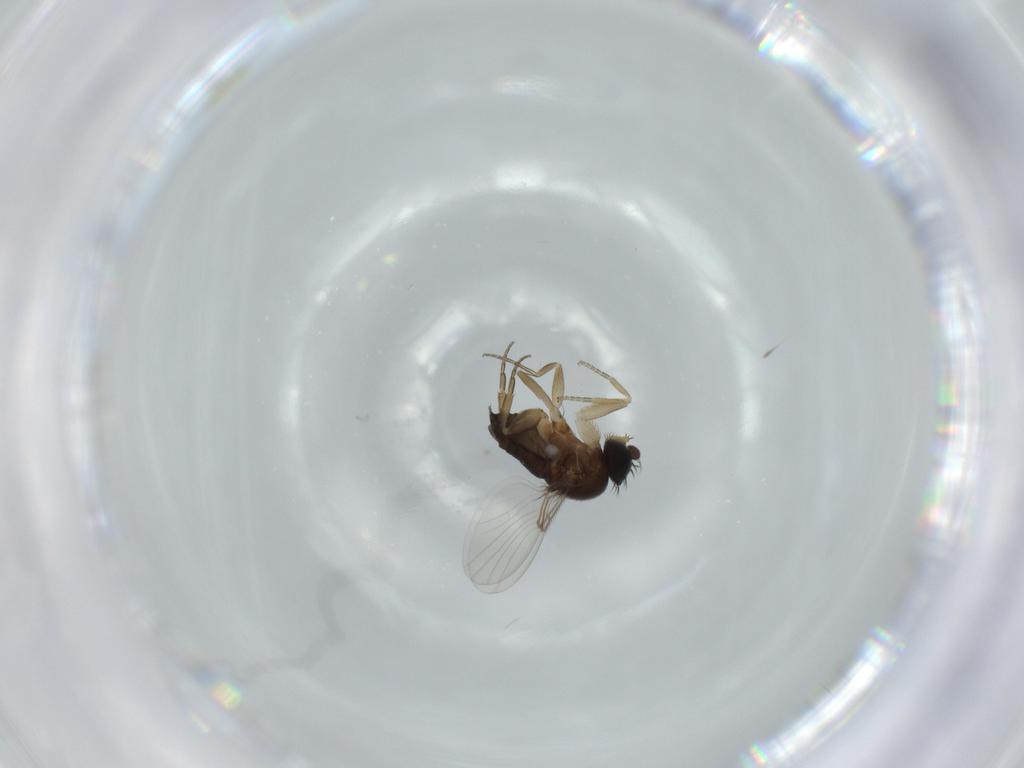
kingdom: Animalia
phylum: Arthropoda
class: Insecta
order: Diptera
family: Phoridae
